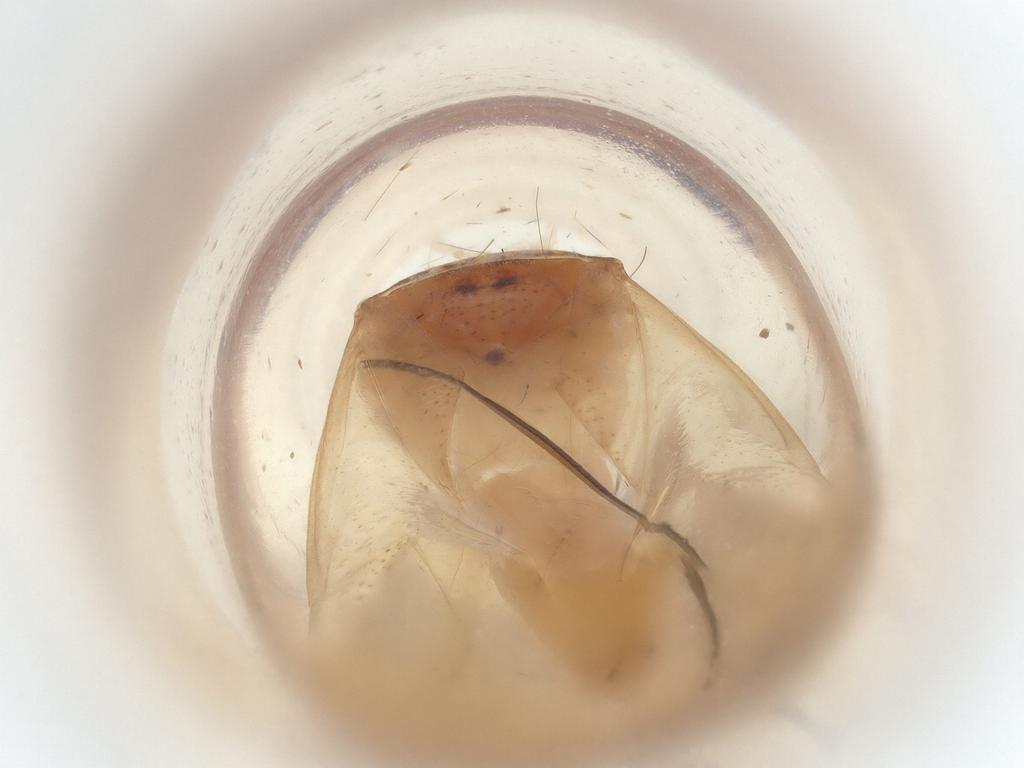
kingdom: Animalia
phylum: Arthropoda
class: Insecta
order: Hemiptera
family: Miridae
